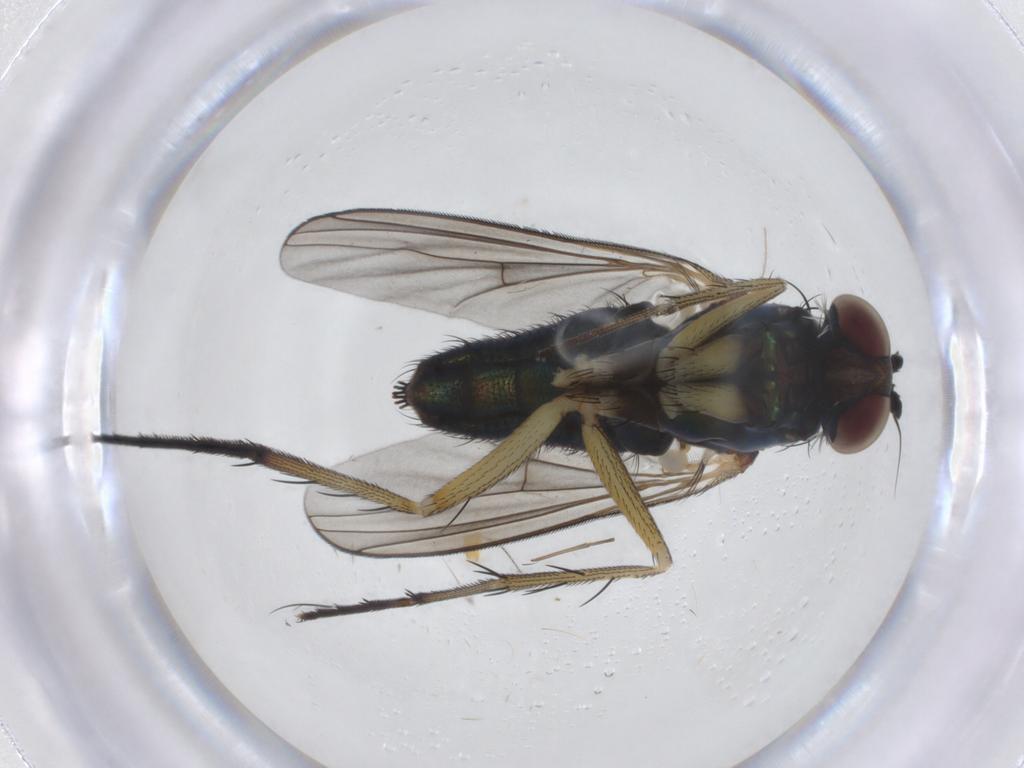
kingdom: Animalia
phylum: Arthropoda
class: Insecta
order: Diptera
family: Dolichopodidae
